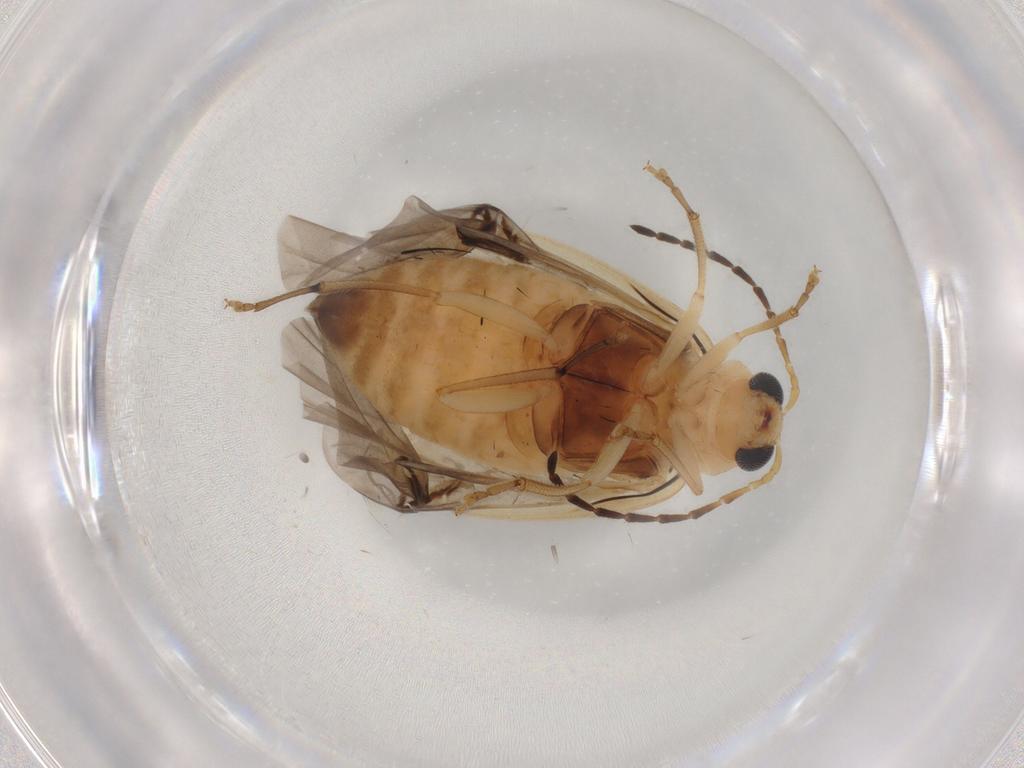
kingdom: Animalia
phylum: Arthropoda
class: Insecta
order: Coleoptera
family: Chrysomelidae
